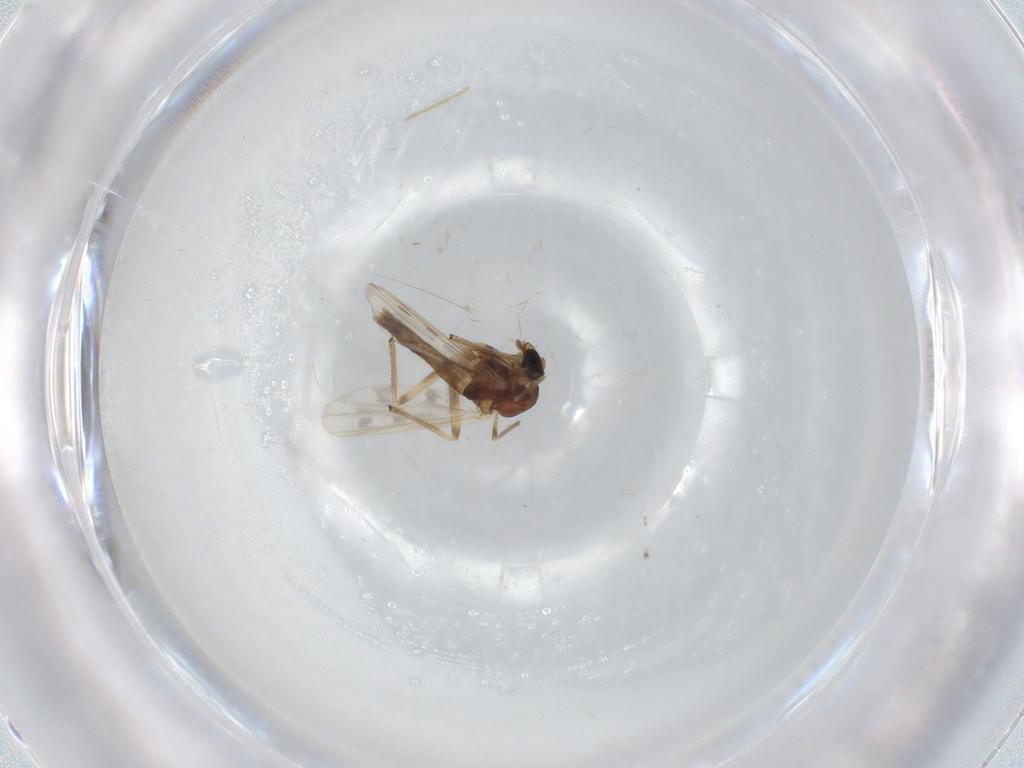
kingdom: Animalia
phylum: Arthropoda
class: Insecta
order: Diptera
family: Chironomidae
